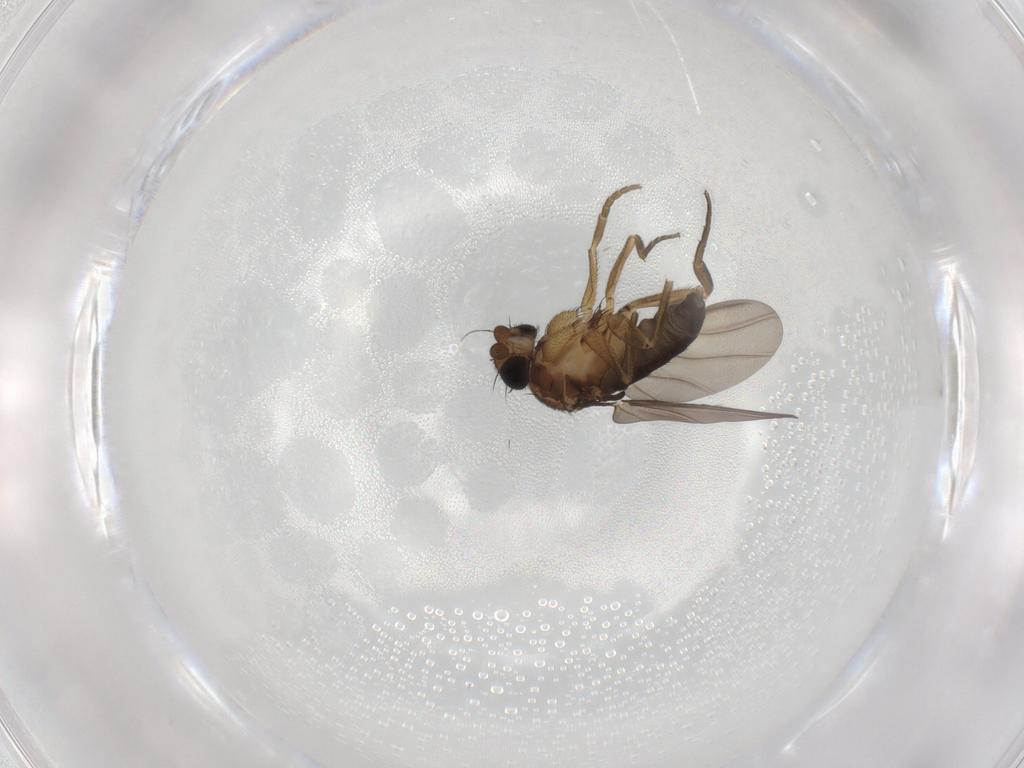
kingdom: Animalia
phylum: Arthropoda
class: Insecta
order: Diptera
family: Phoridae
